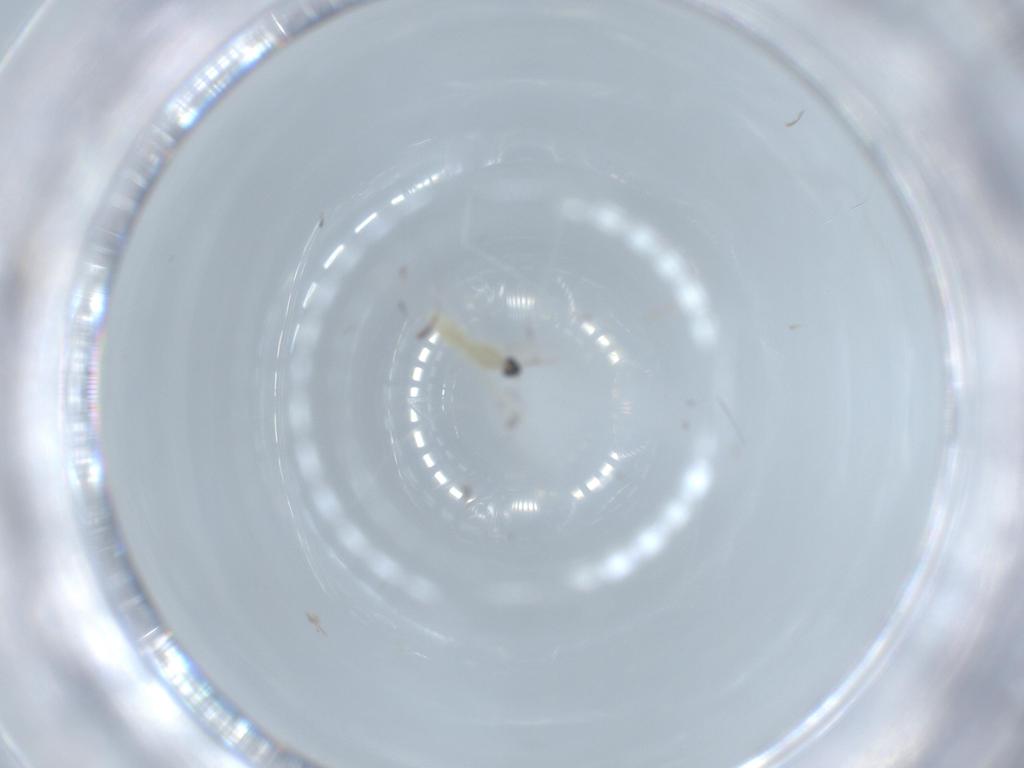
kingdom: Animalia
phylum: Arthropoda
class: Insecta
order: Diptera
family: Cecidomyiidae
